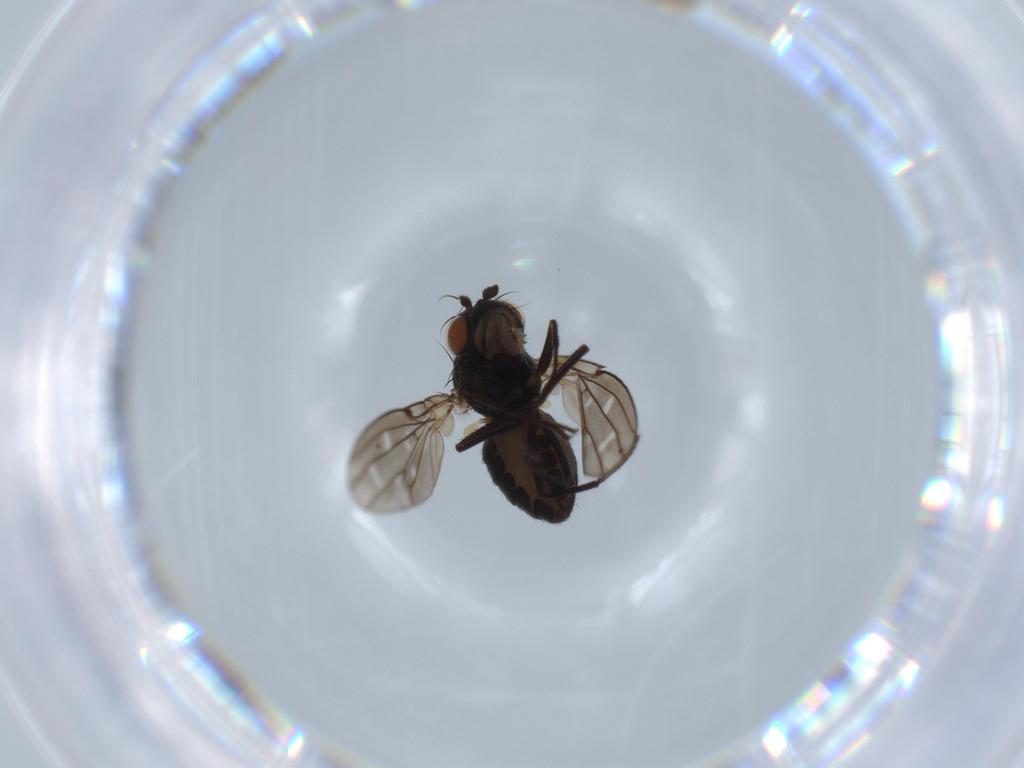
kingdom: Animalia
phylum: Arthropoda
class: Insecta
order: Diptera
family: Ephydridae
